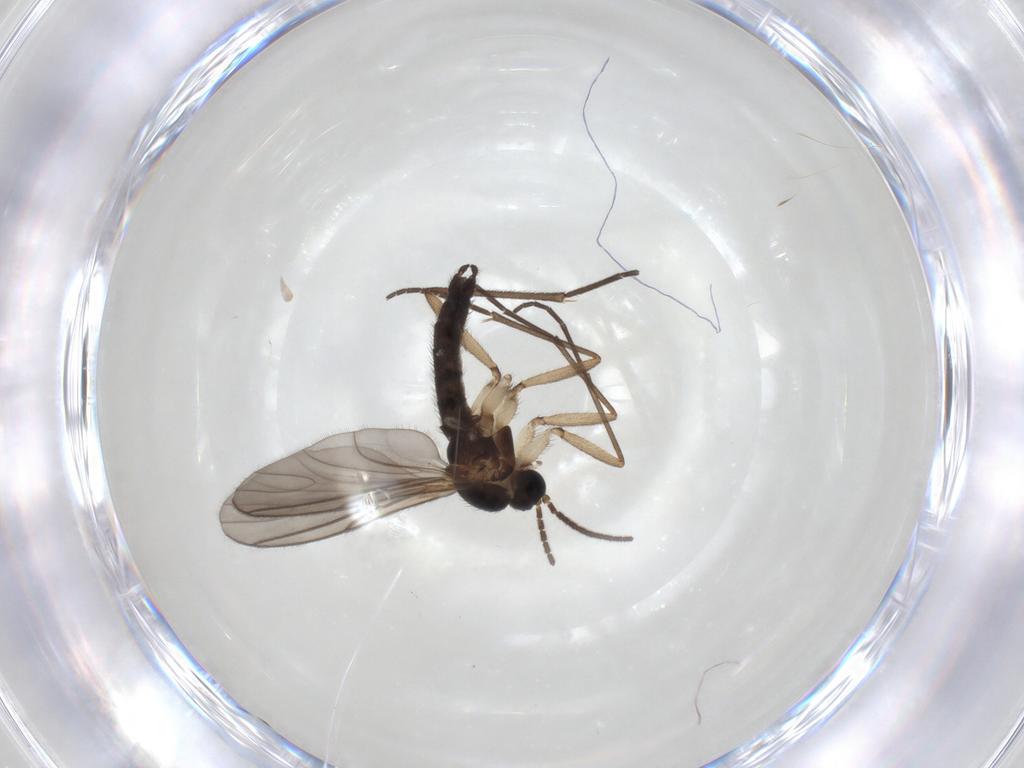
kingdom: Animalia
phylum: Arthropoda
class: Insecta
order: Diptera
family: Sciaridae
